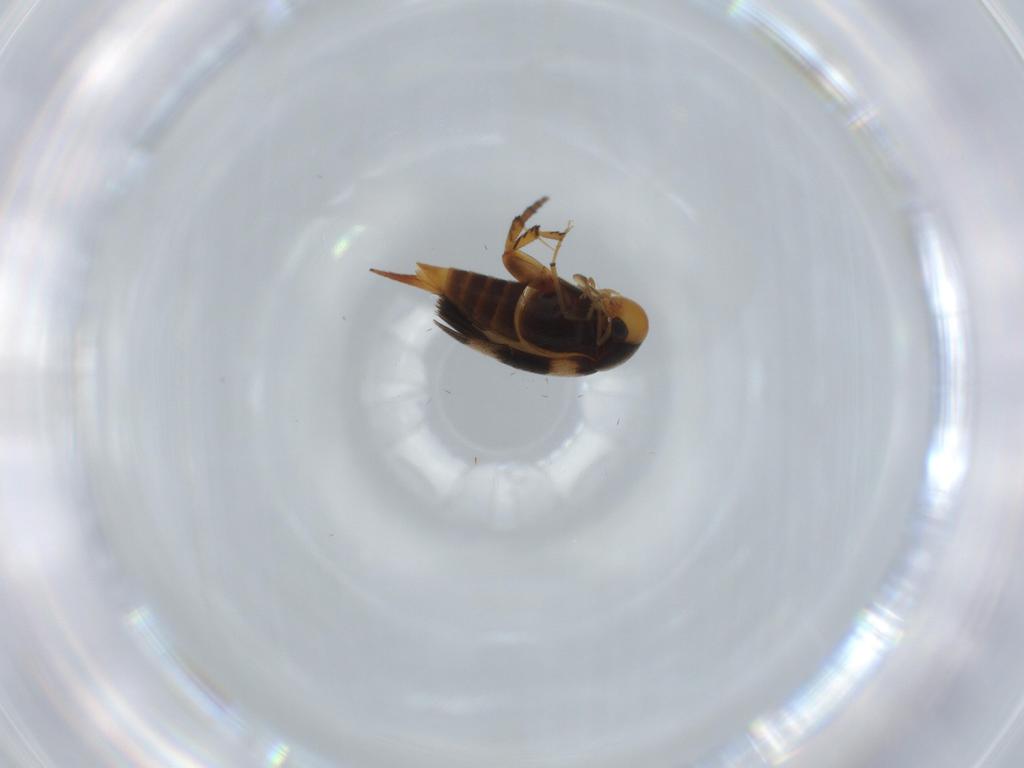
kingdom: Animalia
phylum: Arthropoda
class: Insecta
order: Coleoptera
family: Mordellidae
